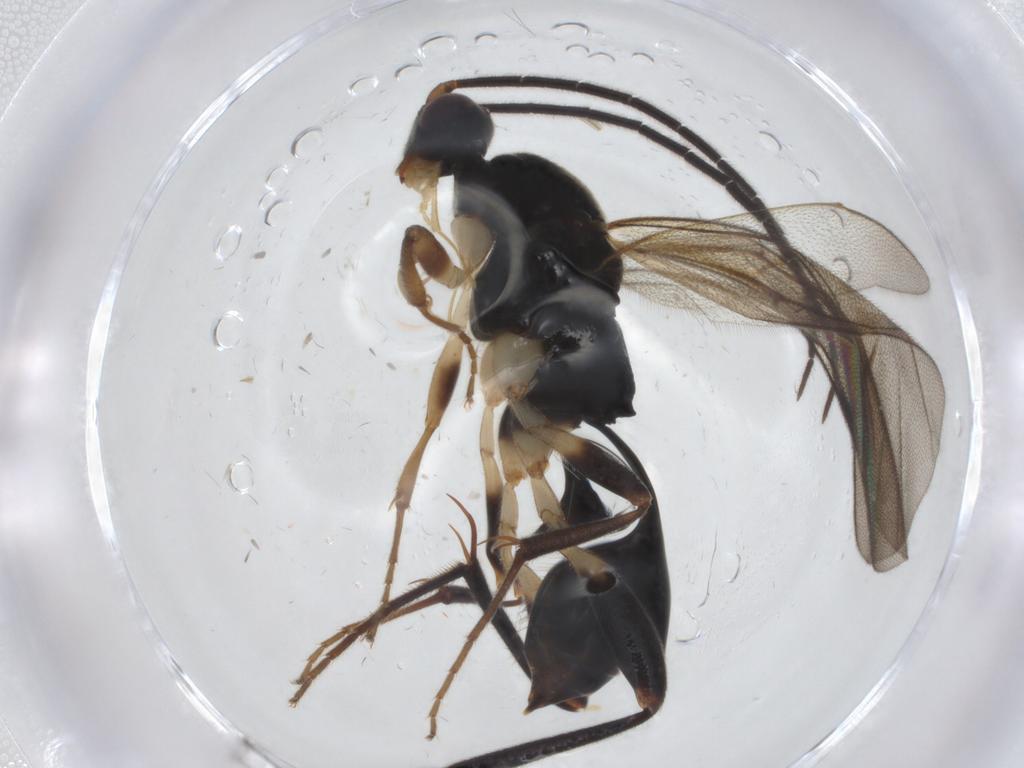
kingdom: Animalia
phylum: Arthropoda
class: Insecta
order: Hymenoptera
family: Proctotrupidae
